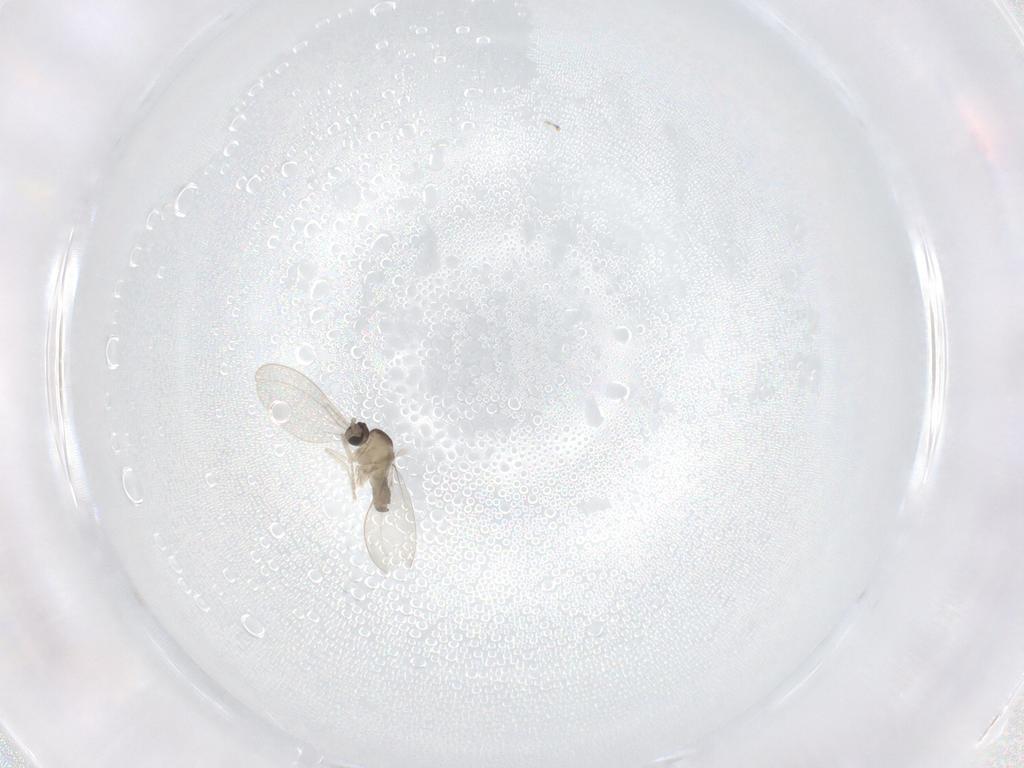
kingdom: Animalia
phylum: Arthropoda
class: Insecta
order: Diptera
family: Cecidomyiidae
